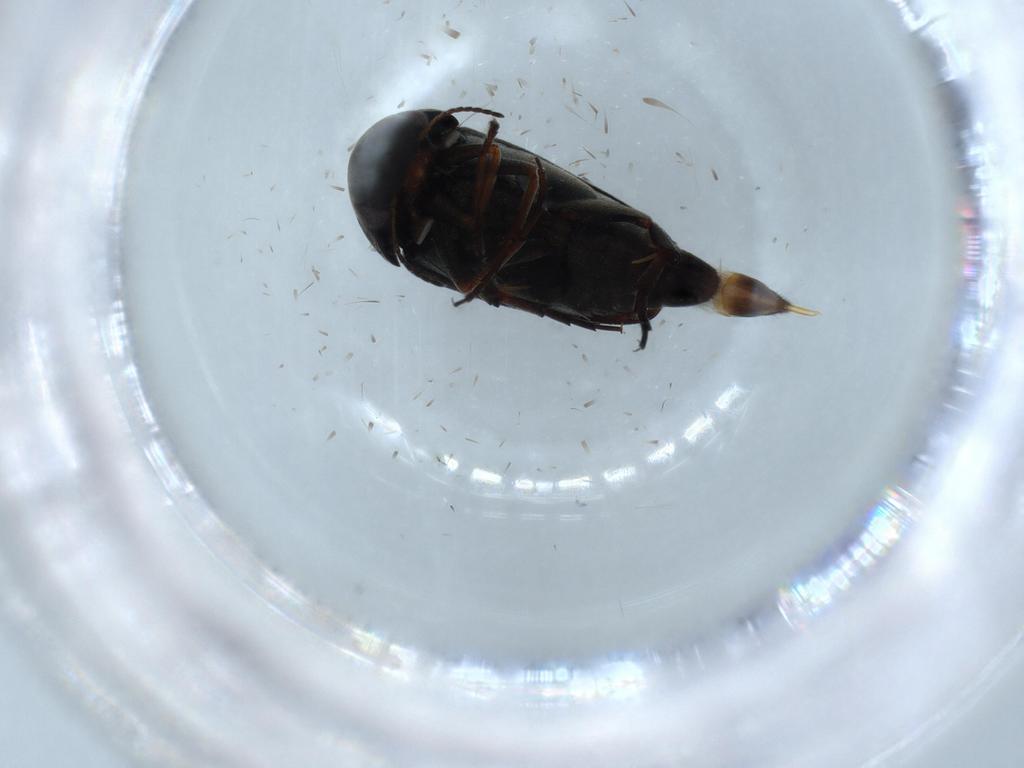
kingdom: Animalia
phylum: Arthropoda
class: Insecta
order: Coleoptera
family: Mordellidae
